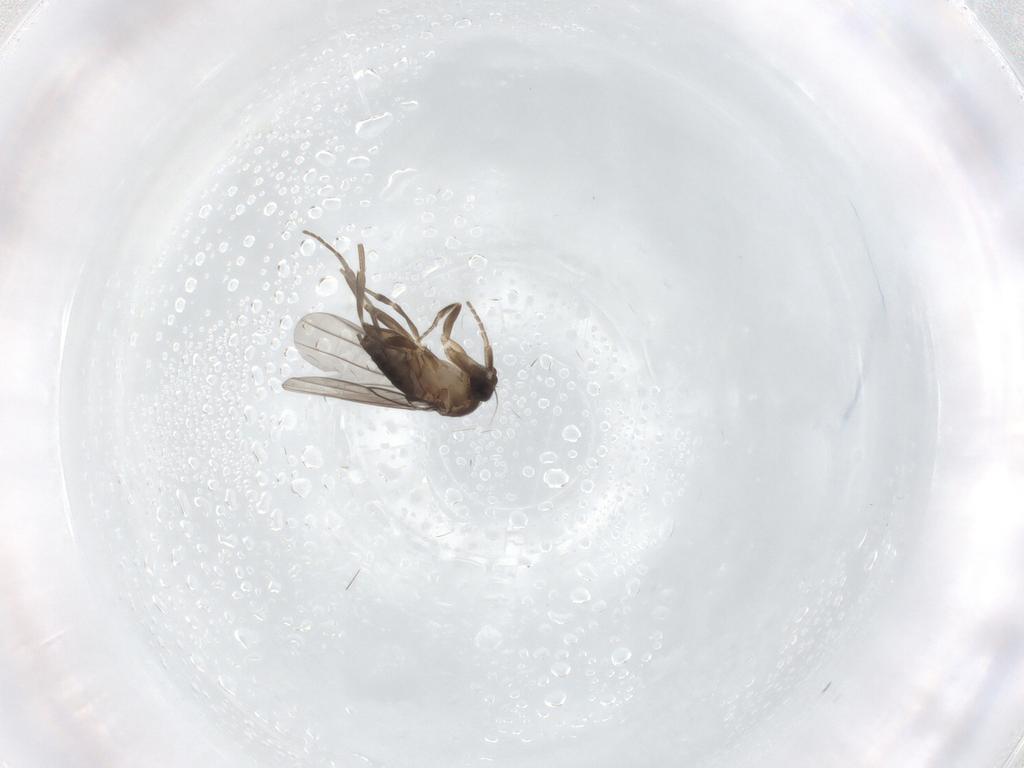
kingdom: Animalia
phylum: Arthropoda
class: Insecta
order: Diptera
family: Phoridae
